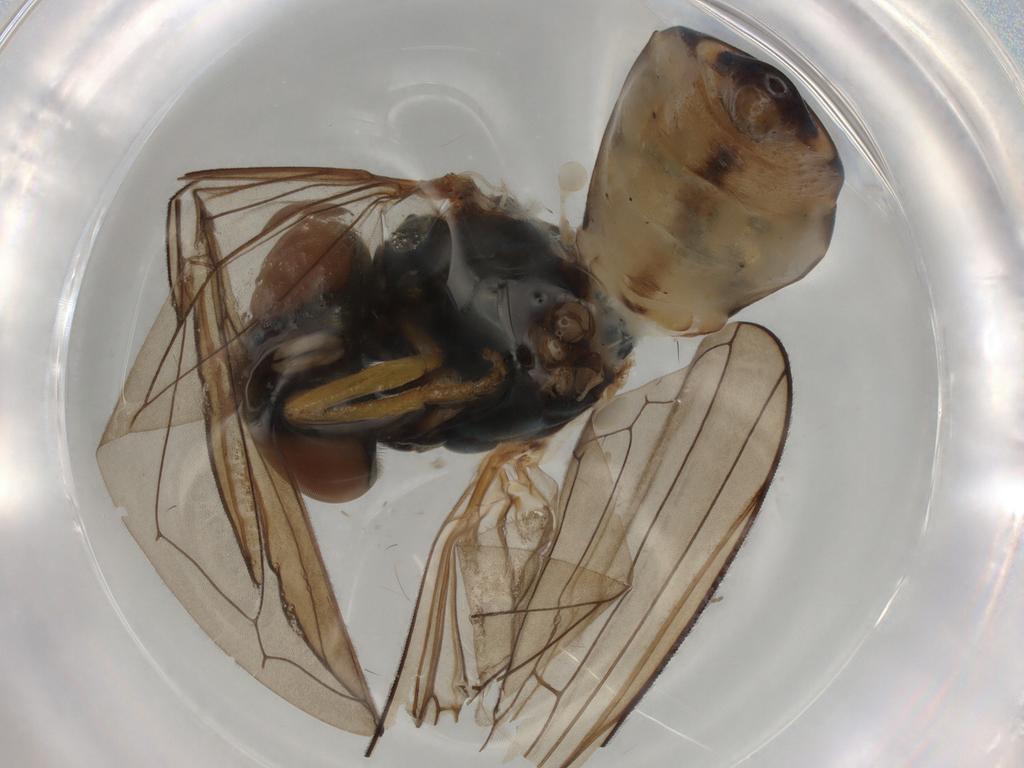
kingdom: Animalia
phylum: Arthropoda
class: Insecta
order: Diptera
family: Syrphidae
